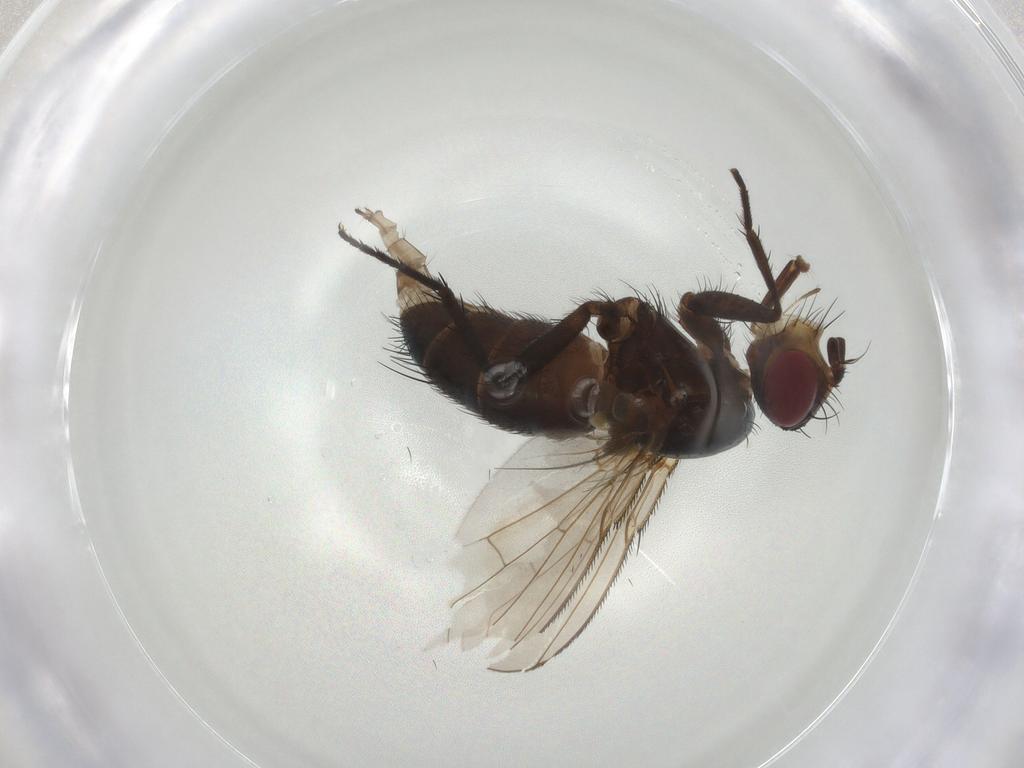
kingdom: Animalia
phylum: Arthropoda
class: Insecta
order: Diptera
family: Calliphoridae
